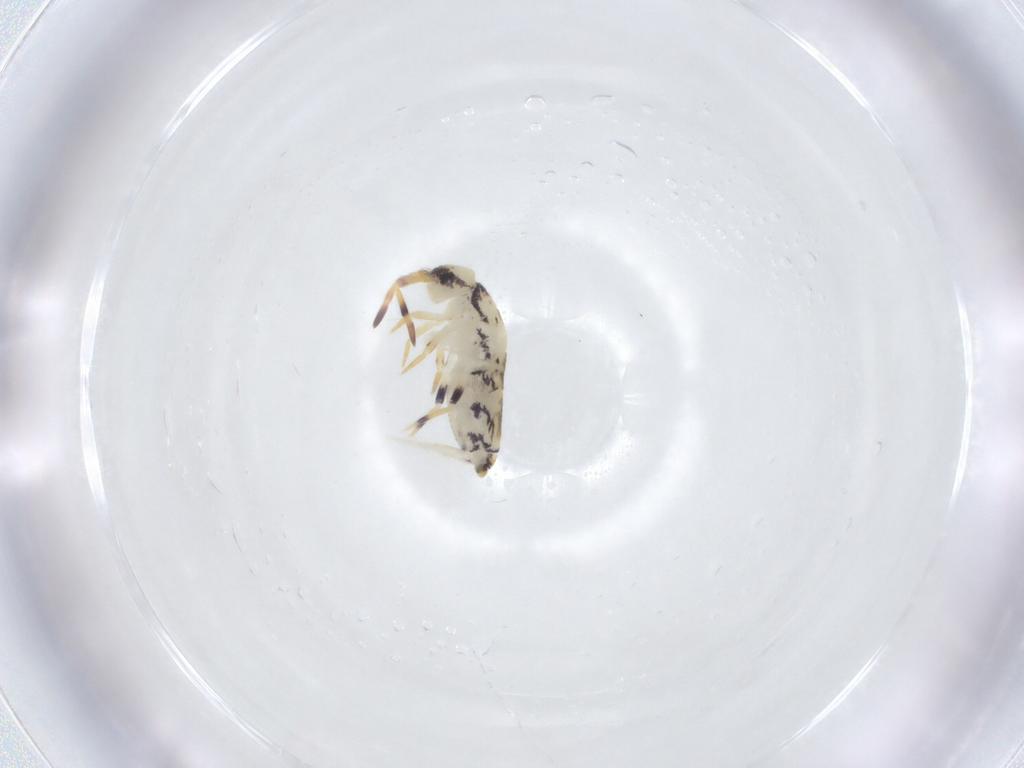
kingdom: Animalia
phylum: Arthropoda
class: Collembola
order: Entomobryomorpha
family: Isotomidae
